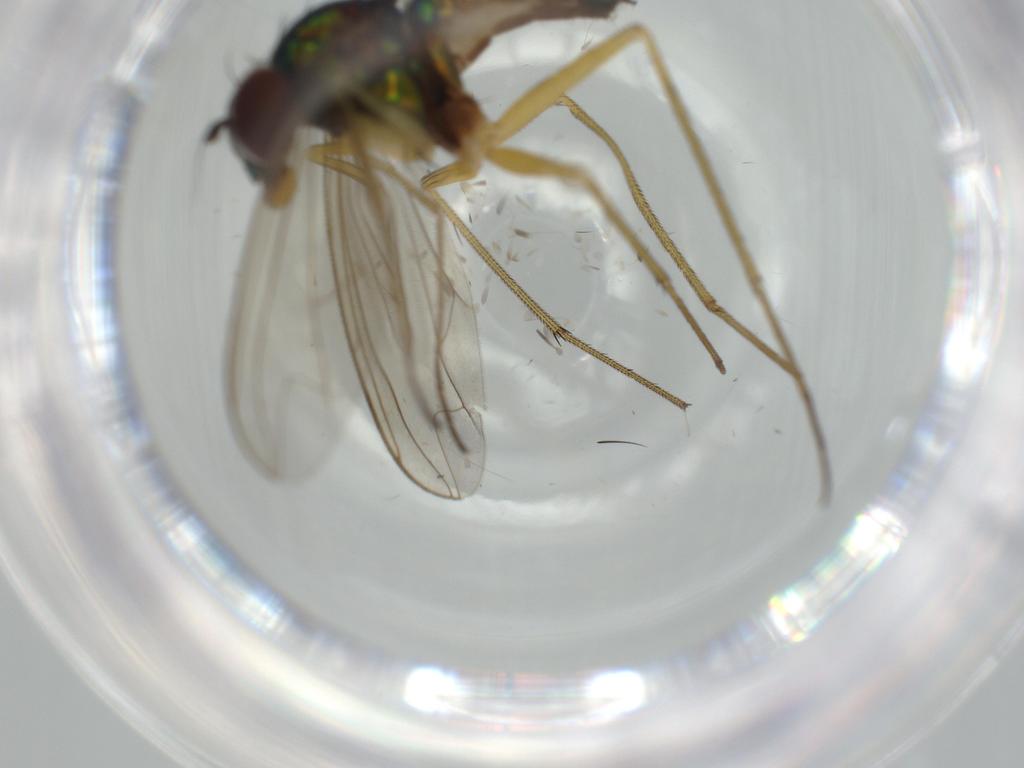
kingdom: Animalia
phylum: Arthropoda
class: Insecta
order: Diptera
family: Dolichopodidae
